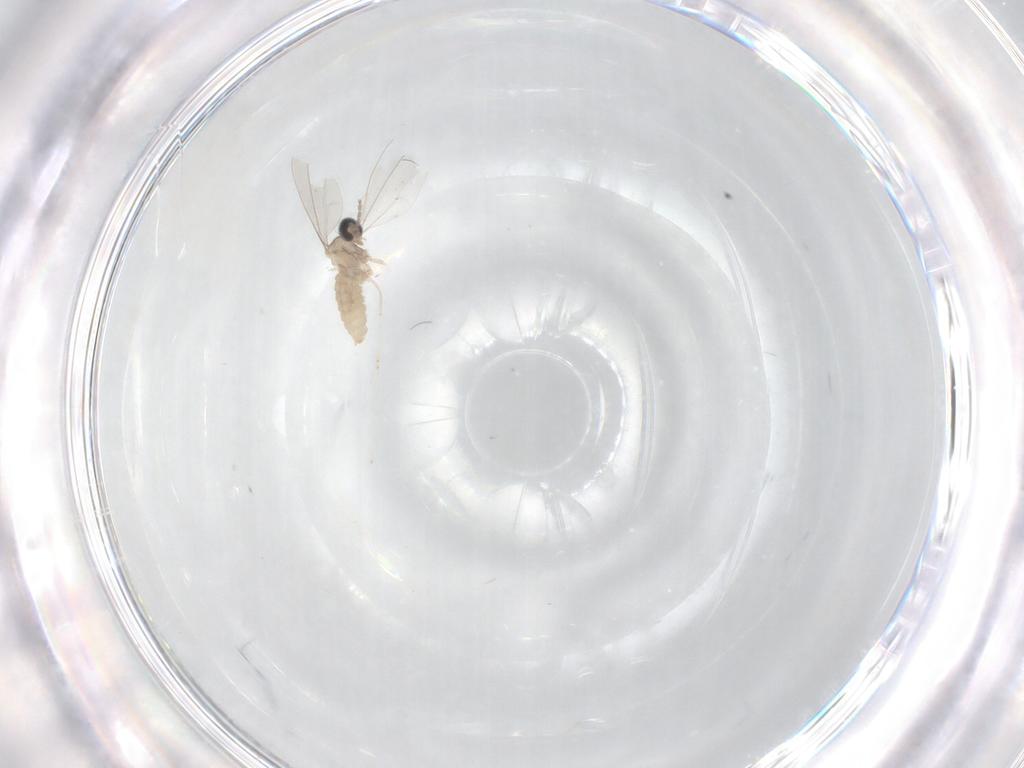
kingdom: Animalia
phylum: Arthropoda
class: Insecta
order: Diptera
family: Cecidomyiidae
